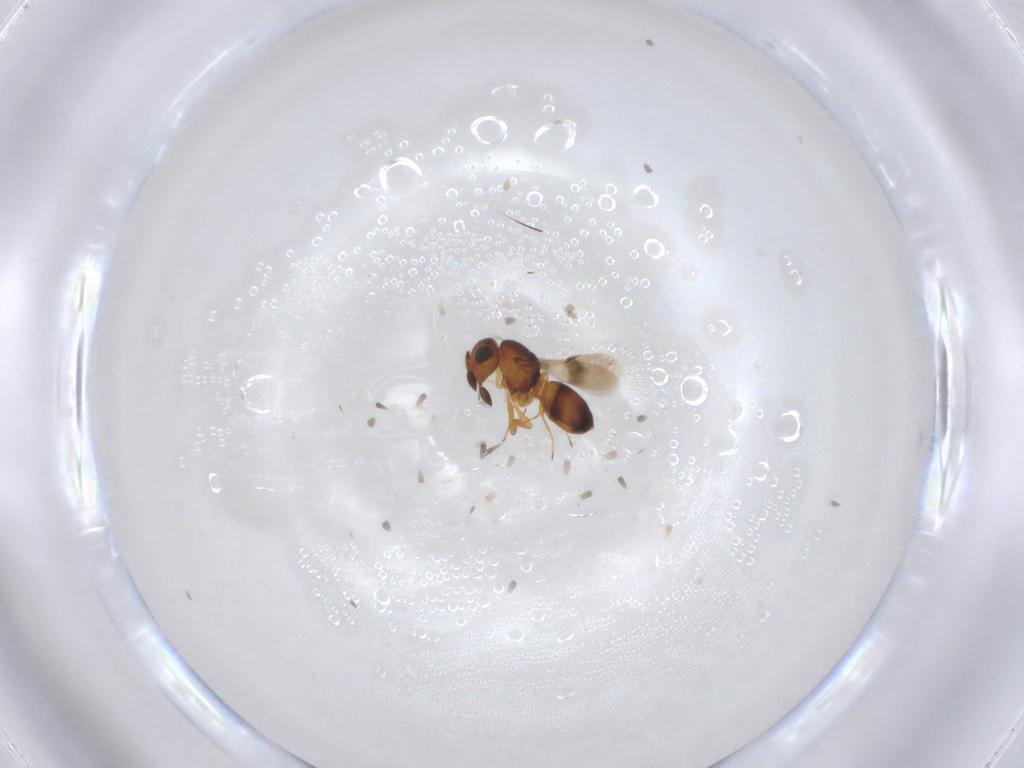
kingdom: Animalia
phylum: Arthropoda
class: Insecta
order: Hymenoptera
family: Scelionidae
